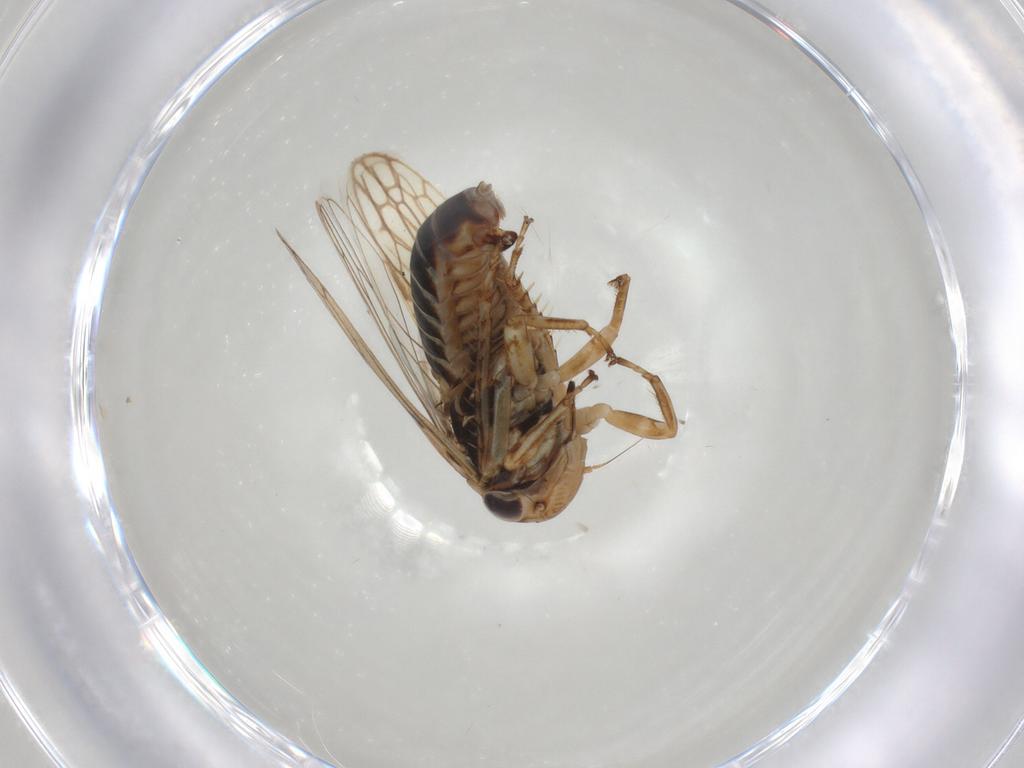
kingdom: Animalia
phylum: Arthropoda
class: Insecta
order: Hemiptera
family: Cicadellidae
